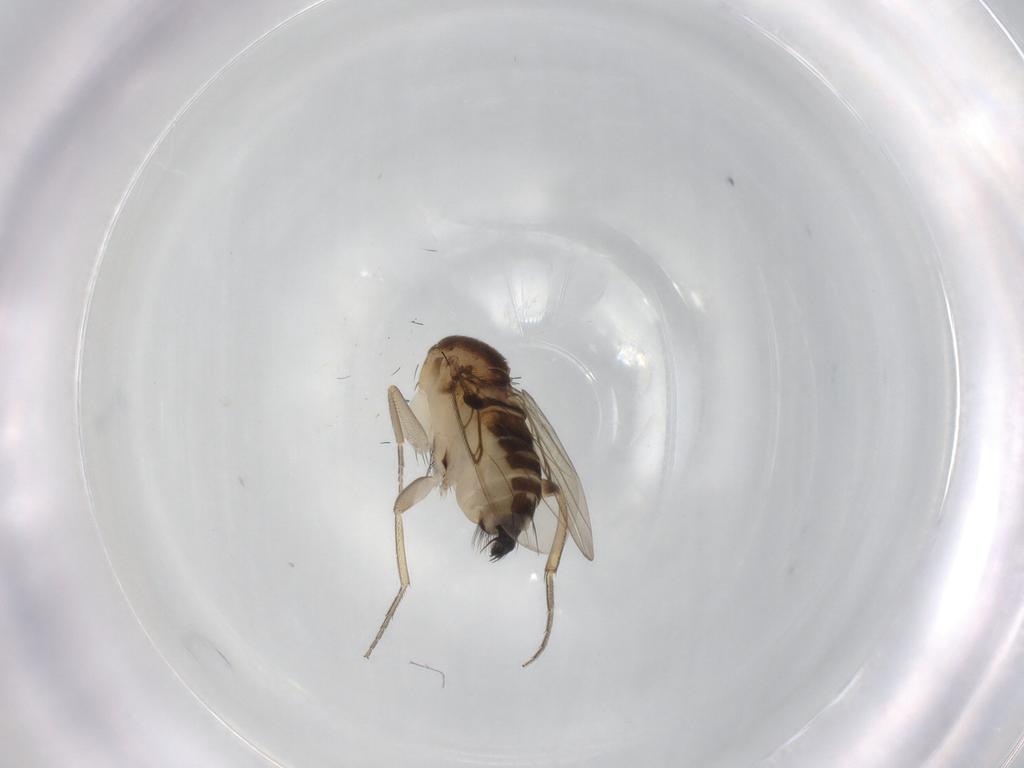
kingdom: Animalia
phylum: Arthropoda
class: Insecta
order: Diptera
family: Phoridae
